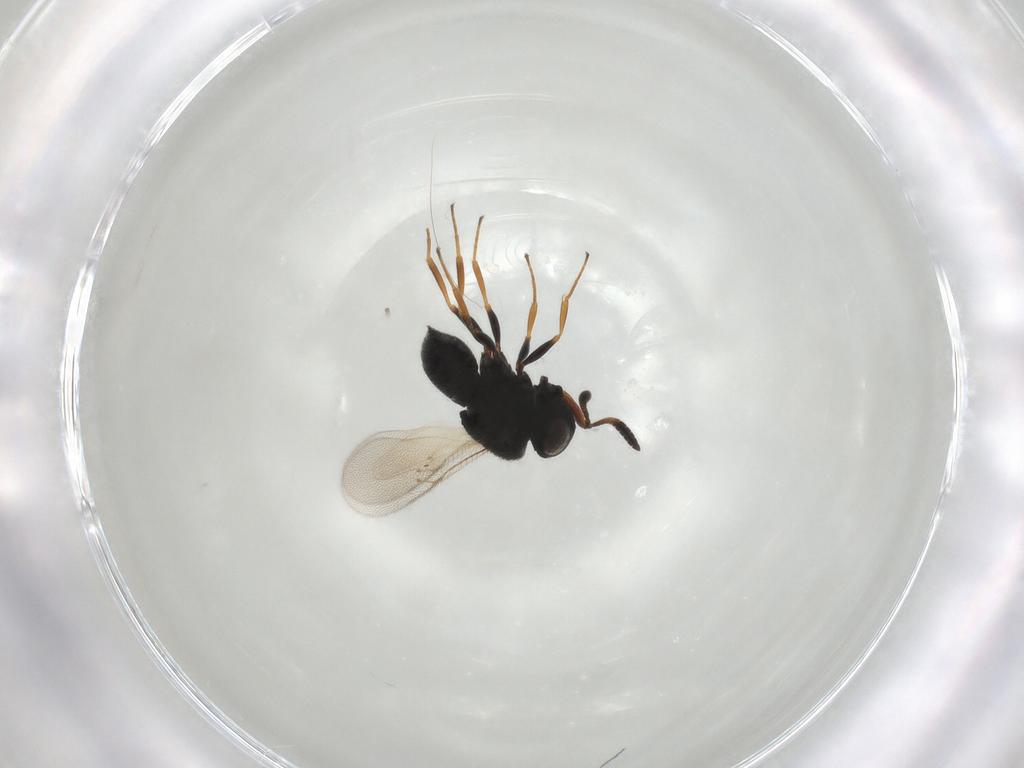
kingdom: Animalia
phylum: Arthropoda
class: Insecta
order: Hymenoptera
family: Scelionidae
